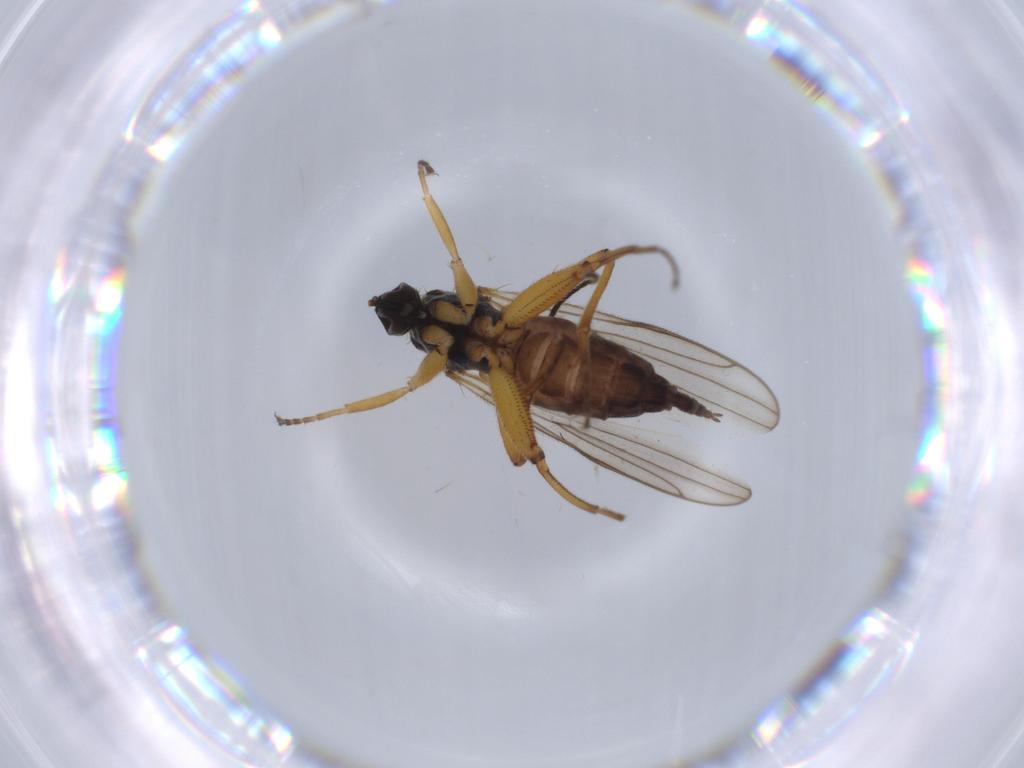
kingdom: Animalia
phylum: Arthropoda
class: Insecta
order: Diptera
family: Hybotidae
